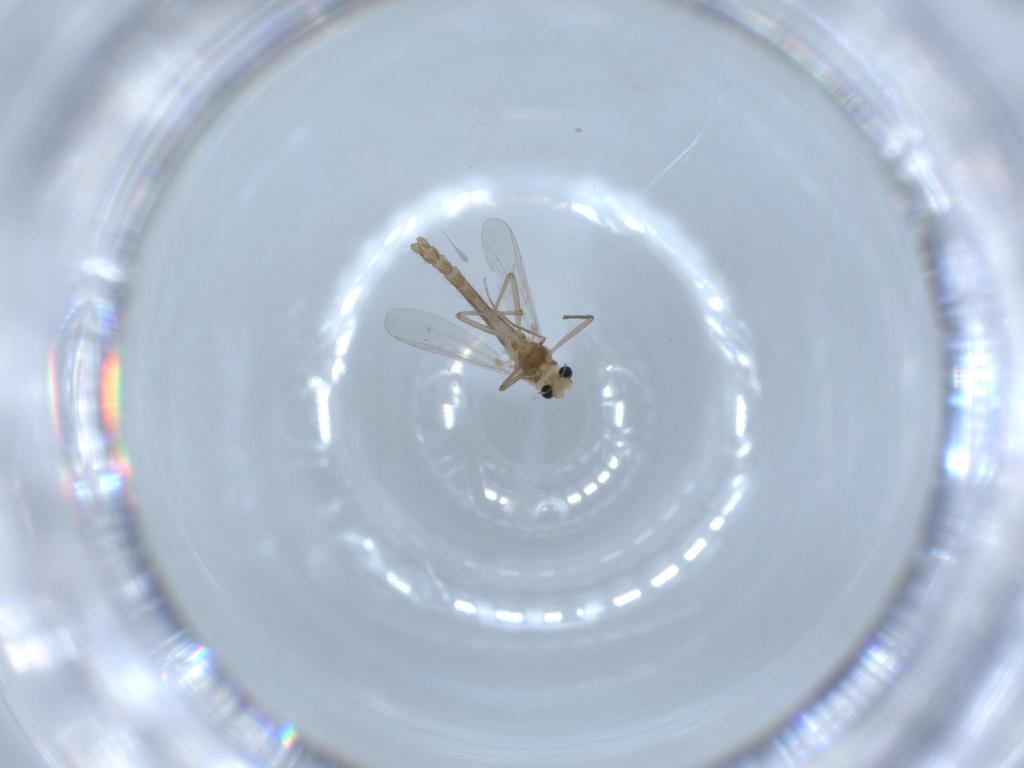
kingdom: Animalia
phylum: Arthropoda
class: Insecta
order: Diptera
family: Chironomidae
